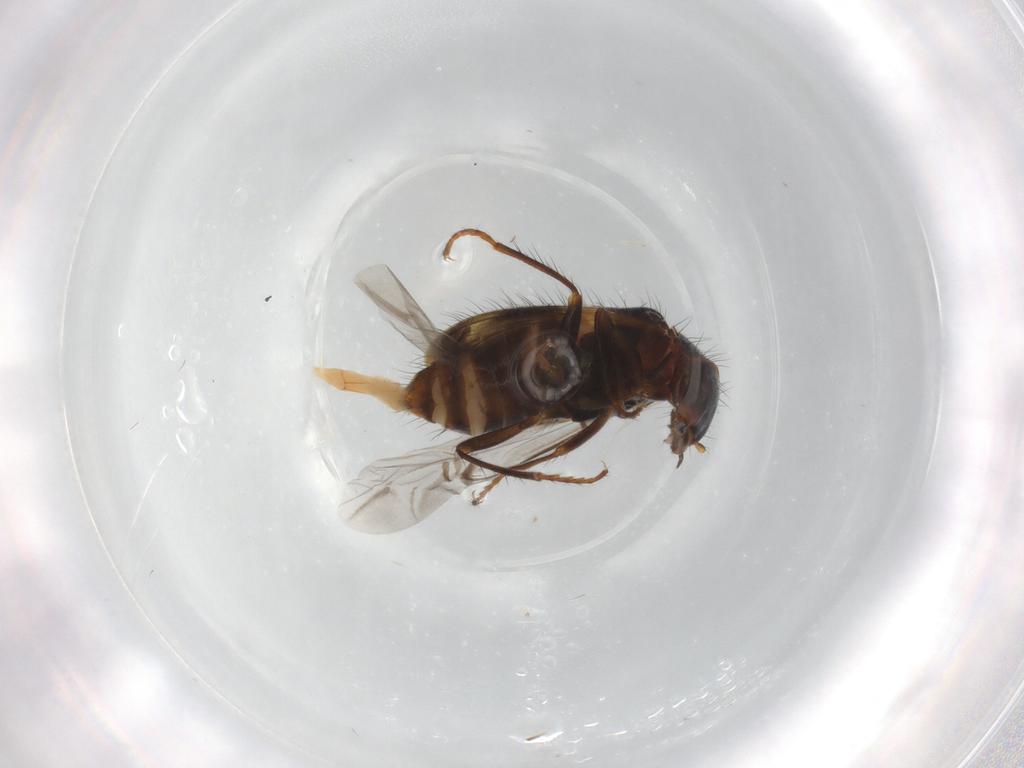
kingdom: Animalia
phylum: Arthropoda
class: Insecta
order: Coleoptera
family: Melyridae
